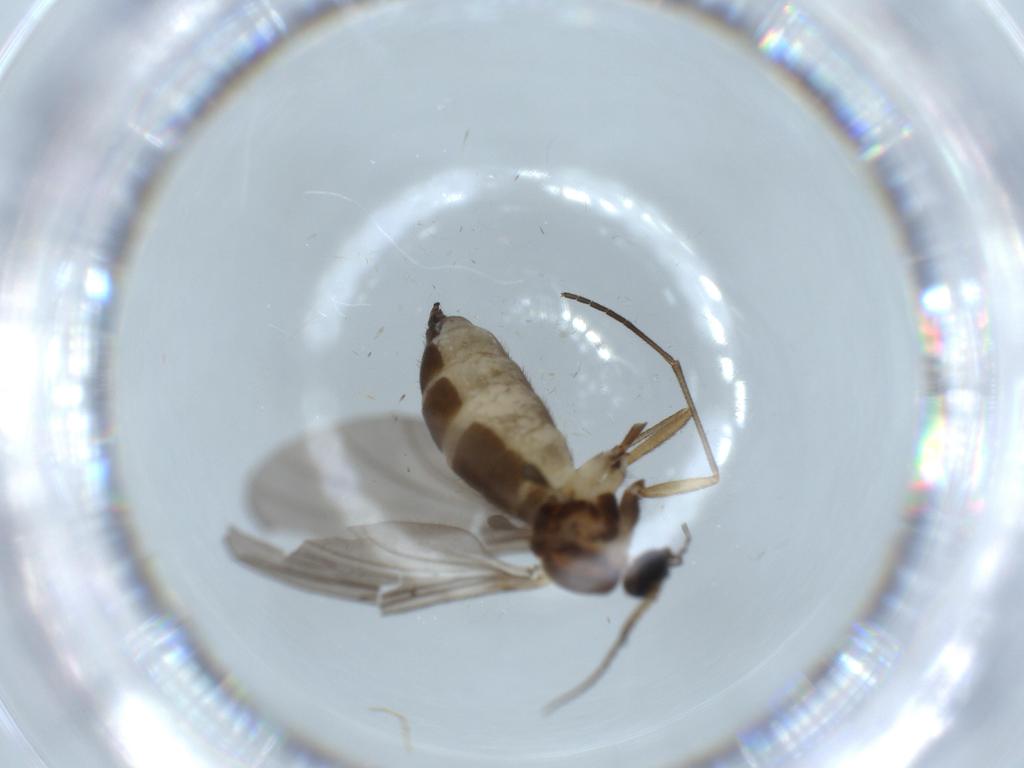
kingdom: Animalia
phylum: Arthropoda
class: Insecta
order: Diptera
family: Sciaridae
